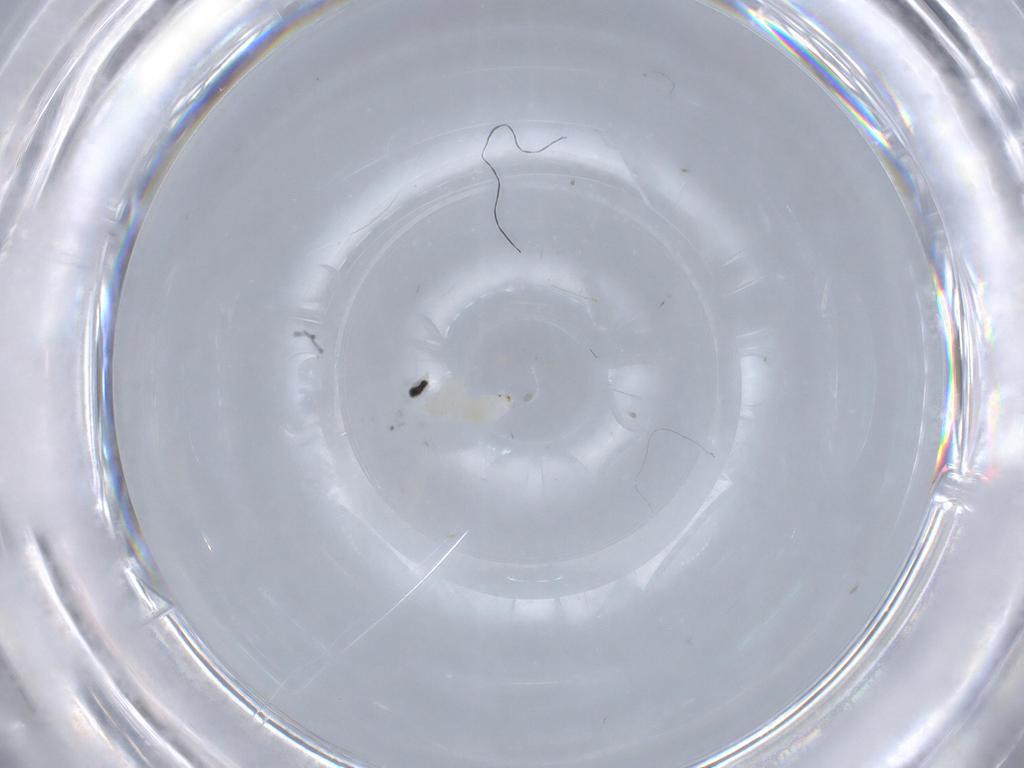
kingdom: Animalia
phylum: Arthropoda
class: Insecta
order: Diptera
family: Cecidomyiidae
